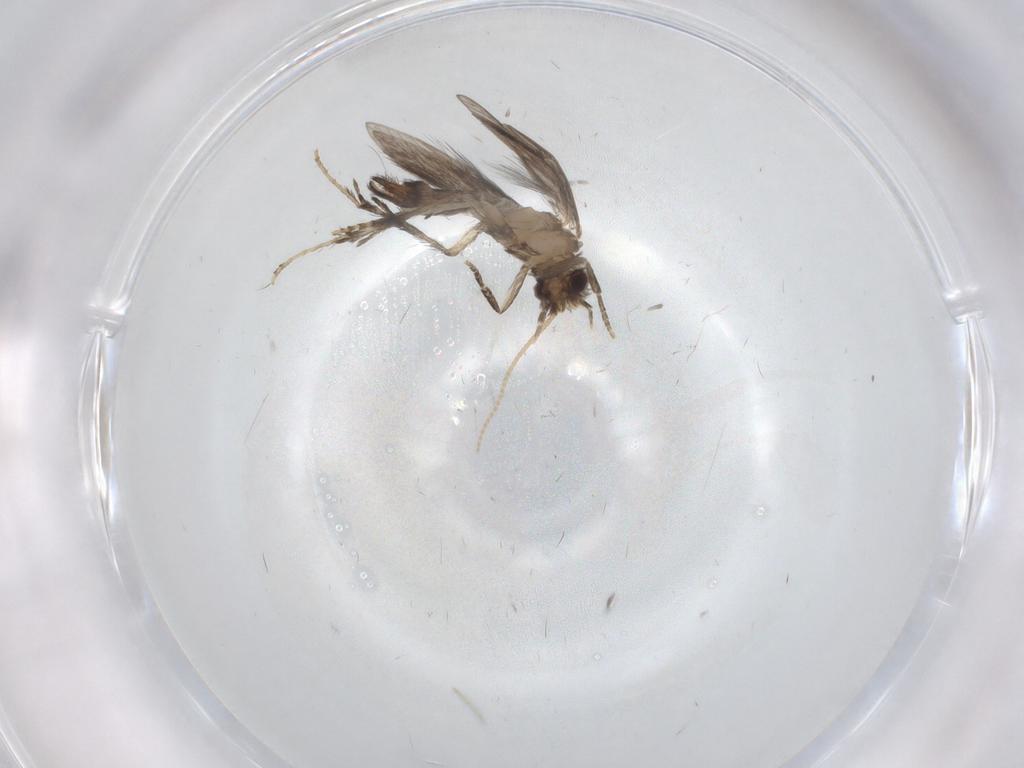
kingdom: Animalia
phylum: Arthropoda
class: Insecta
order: Trichoptera
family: Hydroptilidae
